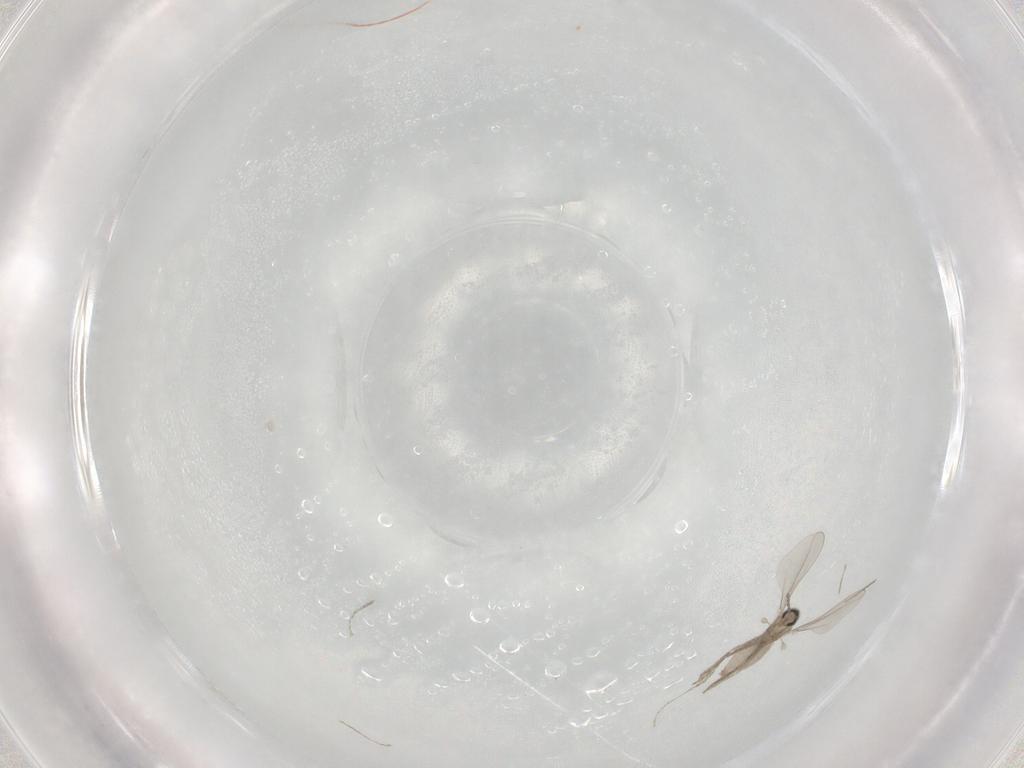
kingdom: Animalia
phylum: Arthropoda
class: Insecta
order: Diptera
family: Cecidomyiidae
